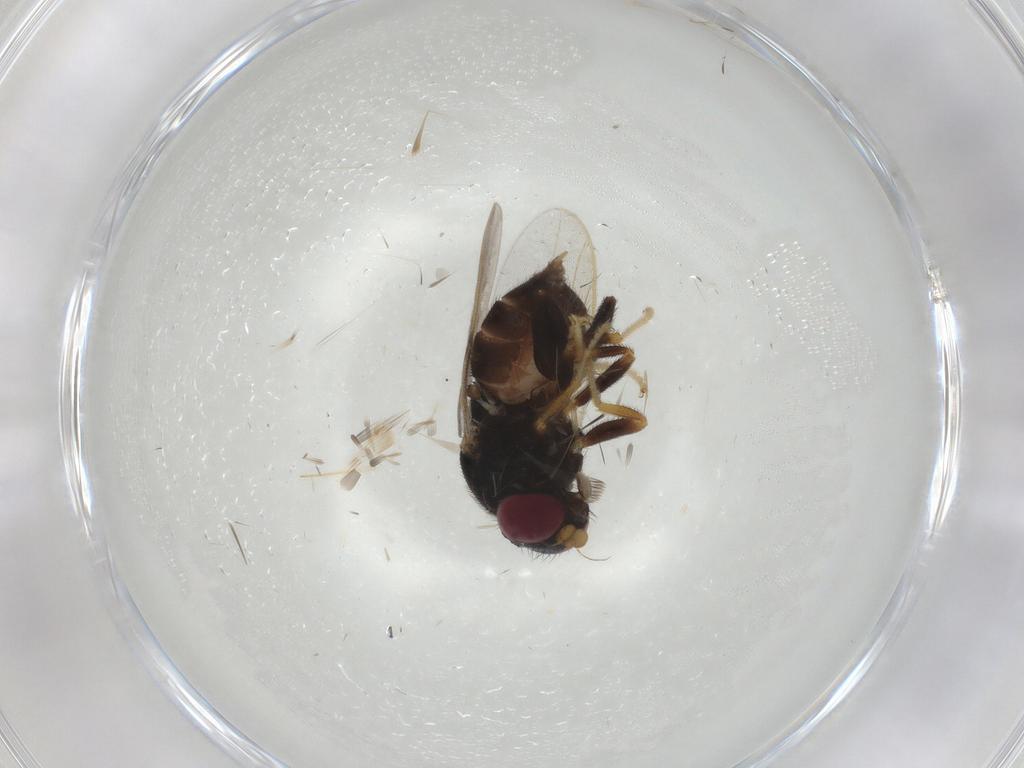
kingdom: Animalia
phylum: Arthropoda
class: Insecta
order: Diptera
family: Chloropidae
